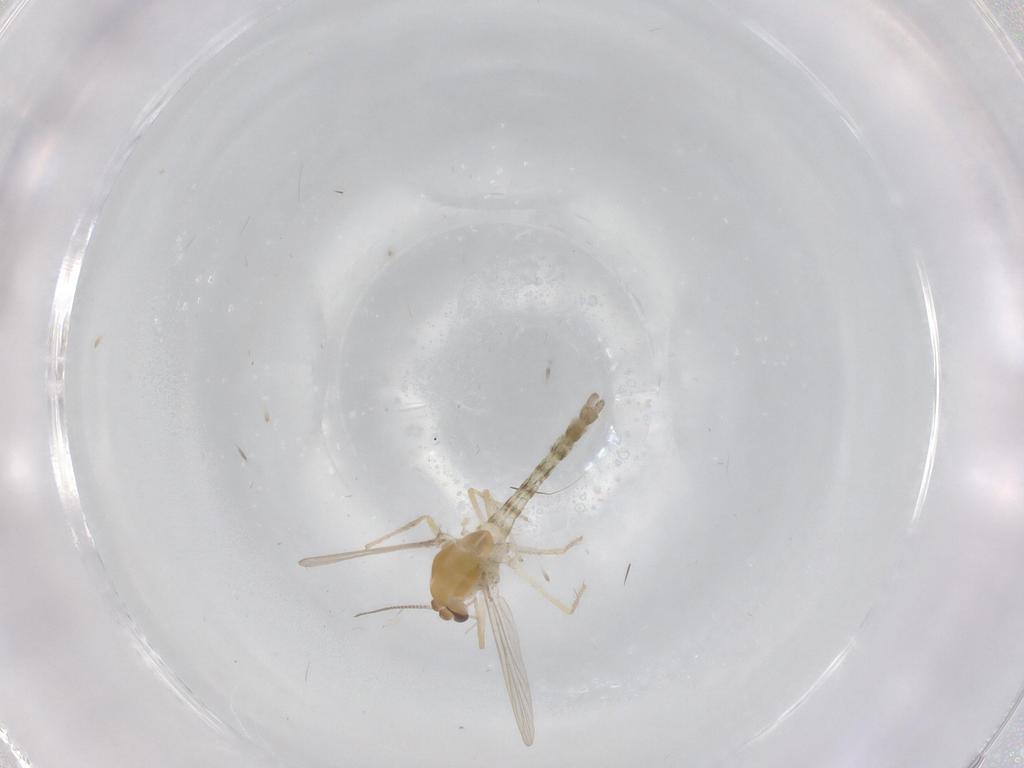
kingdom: Animalia
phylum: Arthropoda
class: Insecta
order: Diptera
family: Chironomidae
